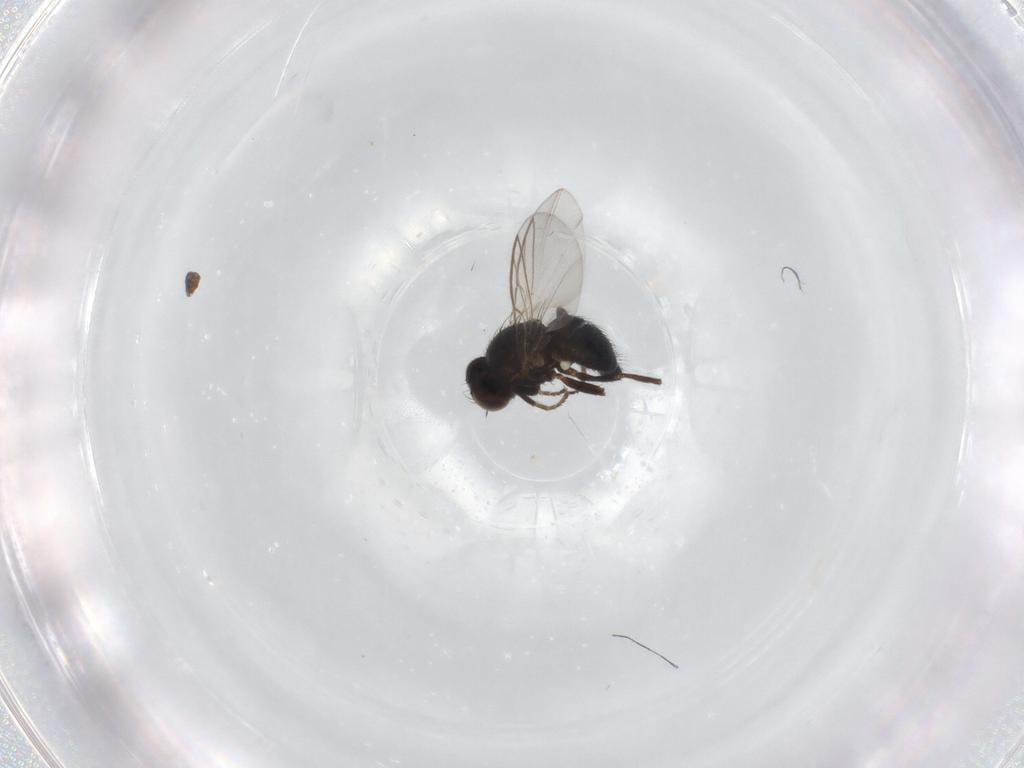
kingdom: Animalia
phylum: Arthropoda
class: Insecta
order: Diptera
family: Agromyzidae
